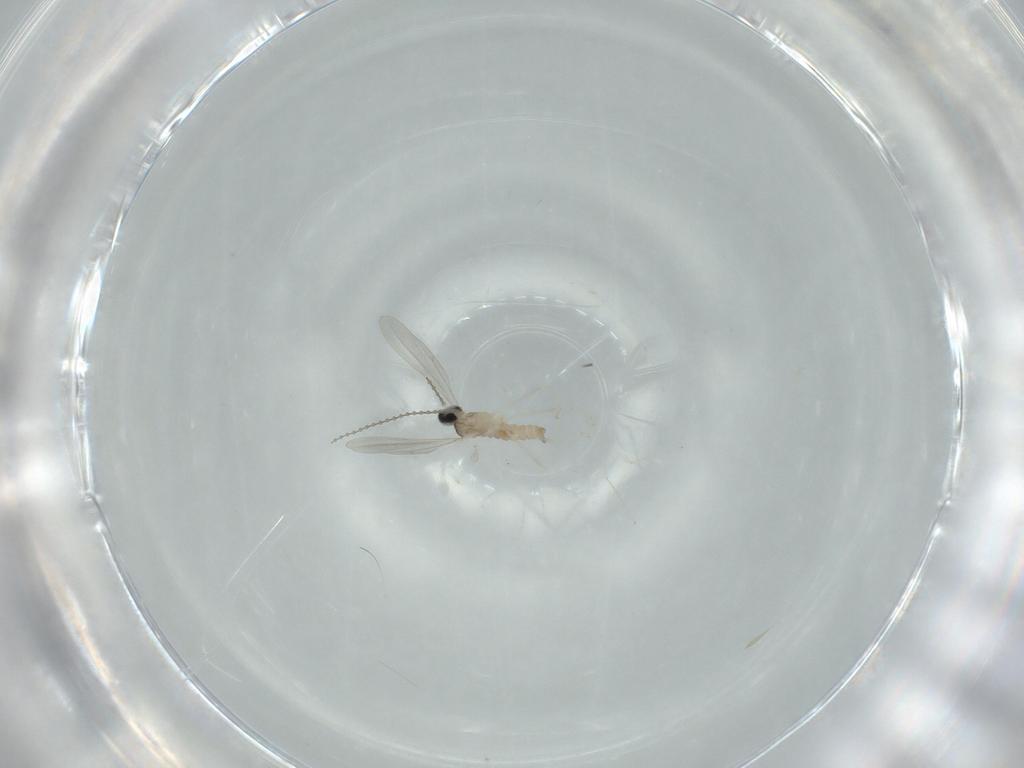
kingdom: Animalia
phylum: Arthropoda
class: Insecta
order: Diptera
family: Cecidomyiidae
